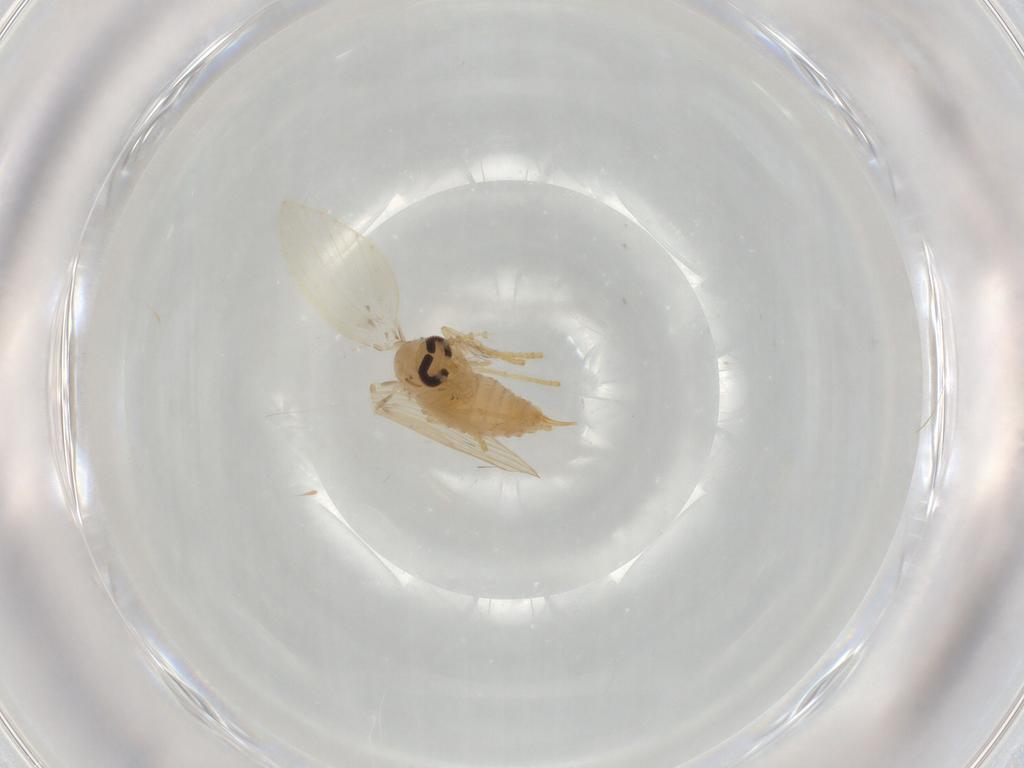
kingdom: Animalia
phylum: Arthropoda
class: Insecta
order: Diptera
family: Psychodidae
